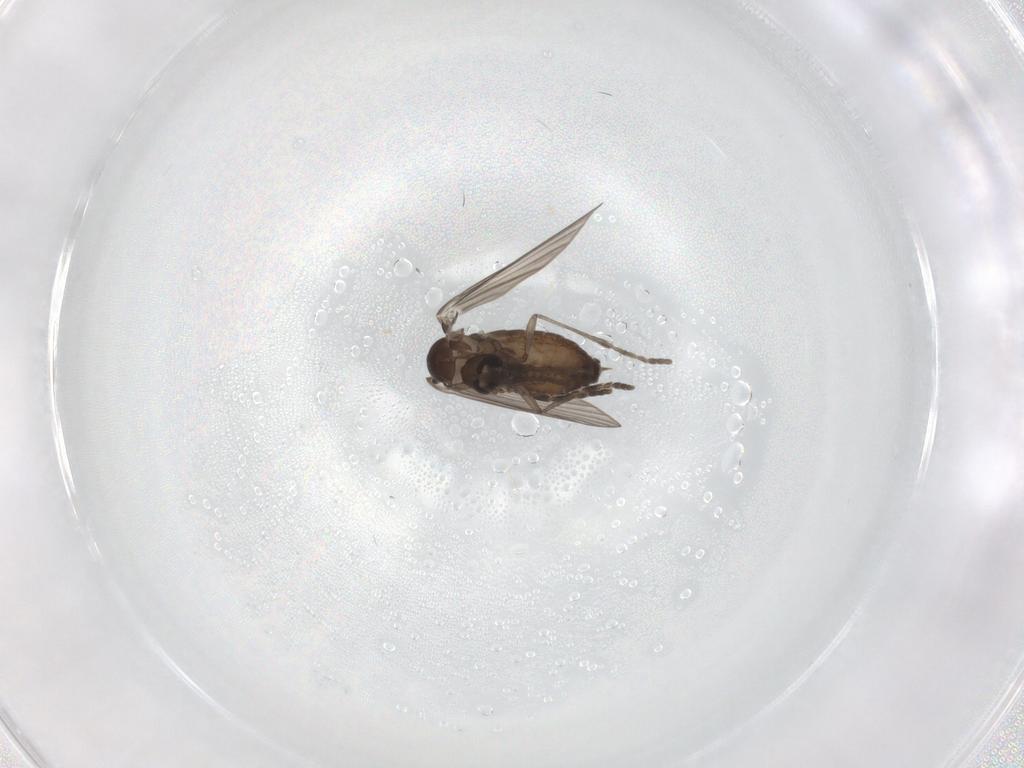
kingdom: Animalia
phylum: Arthropoda
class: Insecta
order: Diptera
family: Psychodidae
